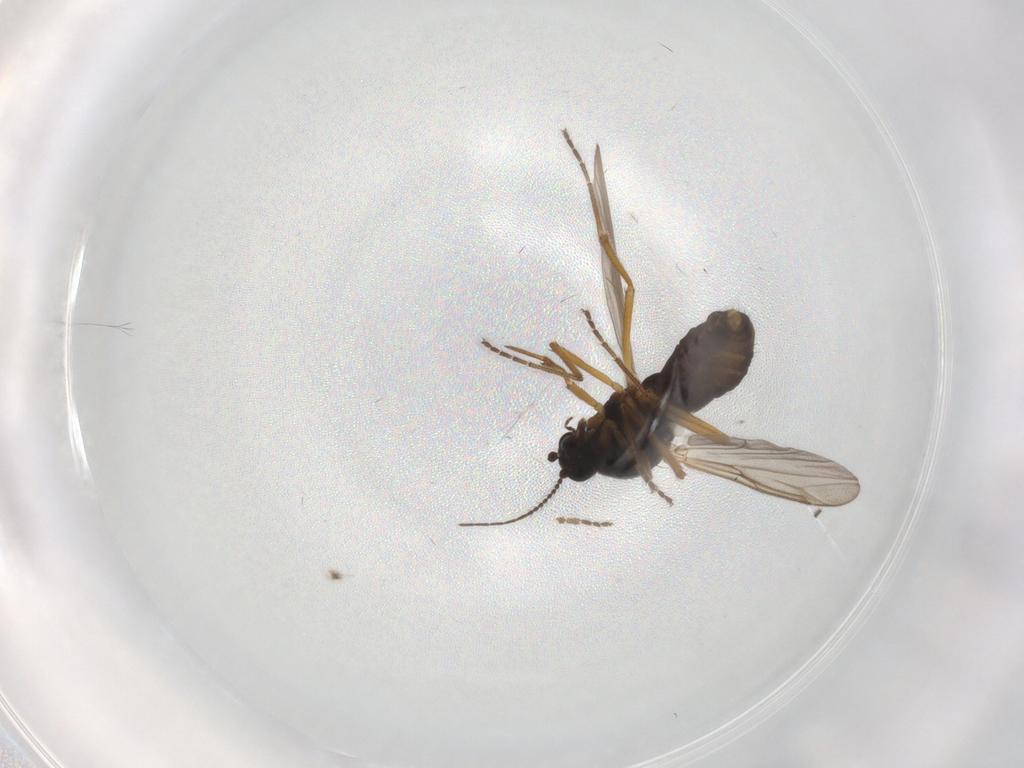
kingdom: Animalia
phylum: Arthropoda
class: Insecta
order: Diptera
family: Ceratopogonidae
